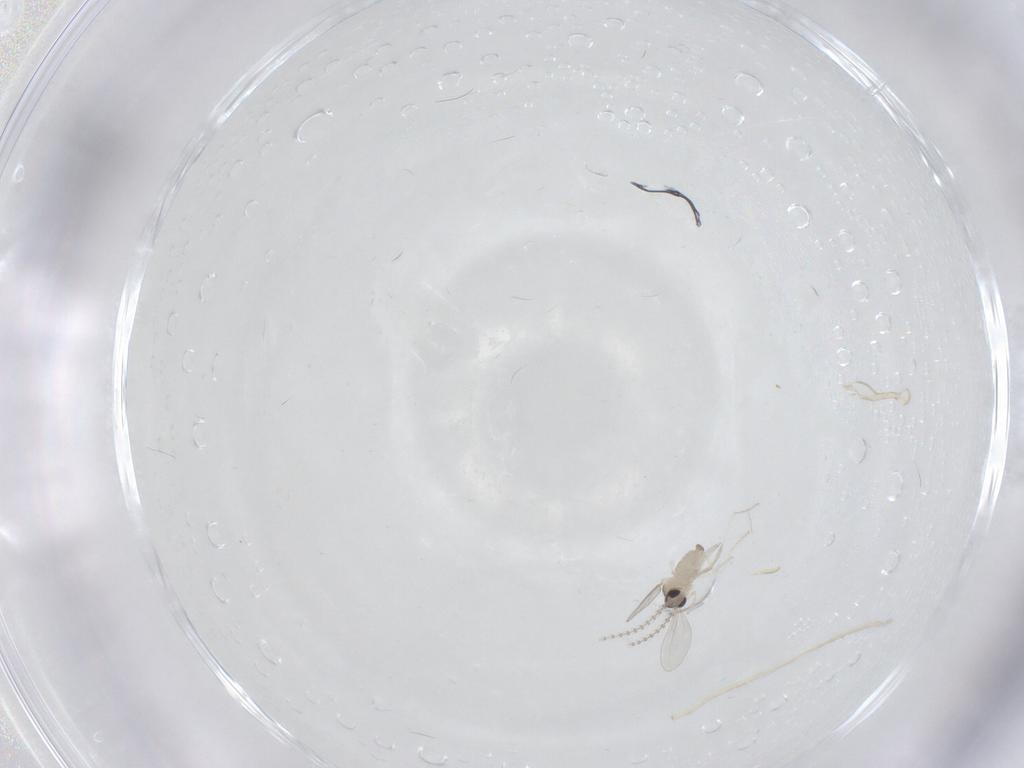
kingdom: Animalia
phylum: Arthropoda
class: Insecta
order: Diptera
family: Cecidomyiidae
